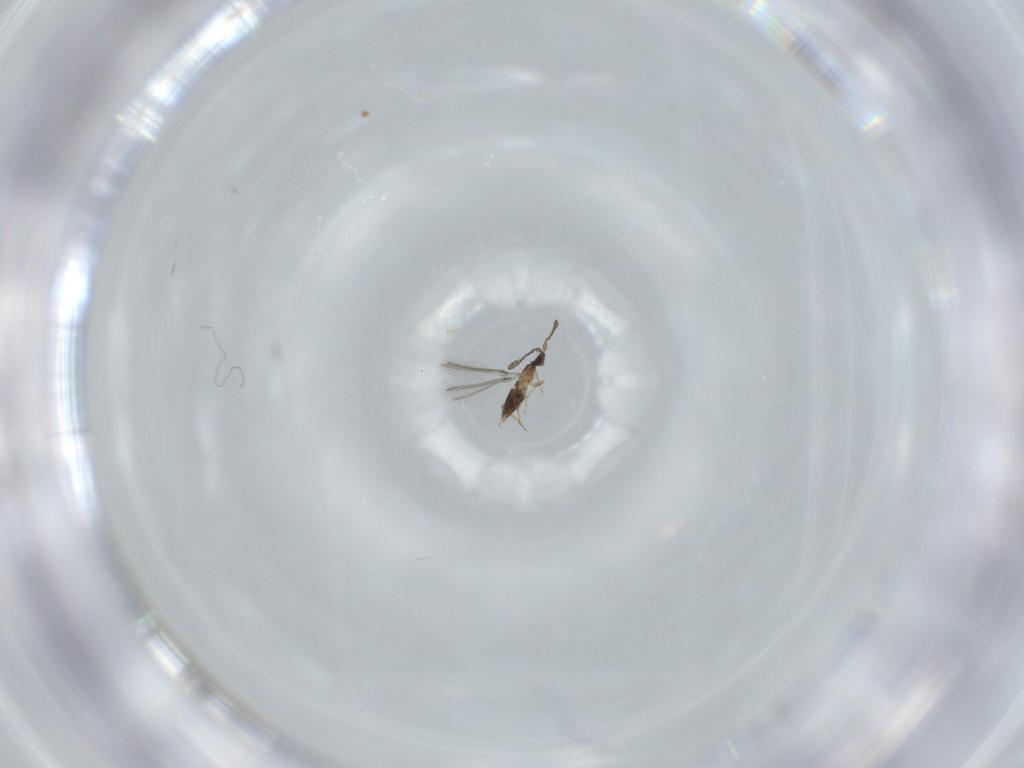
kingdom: Animalia
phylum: Arthropoda
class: Insecta
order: Hymenoptera
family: Mymaridae
